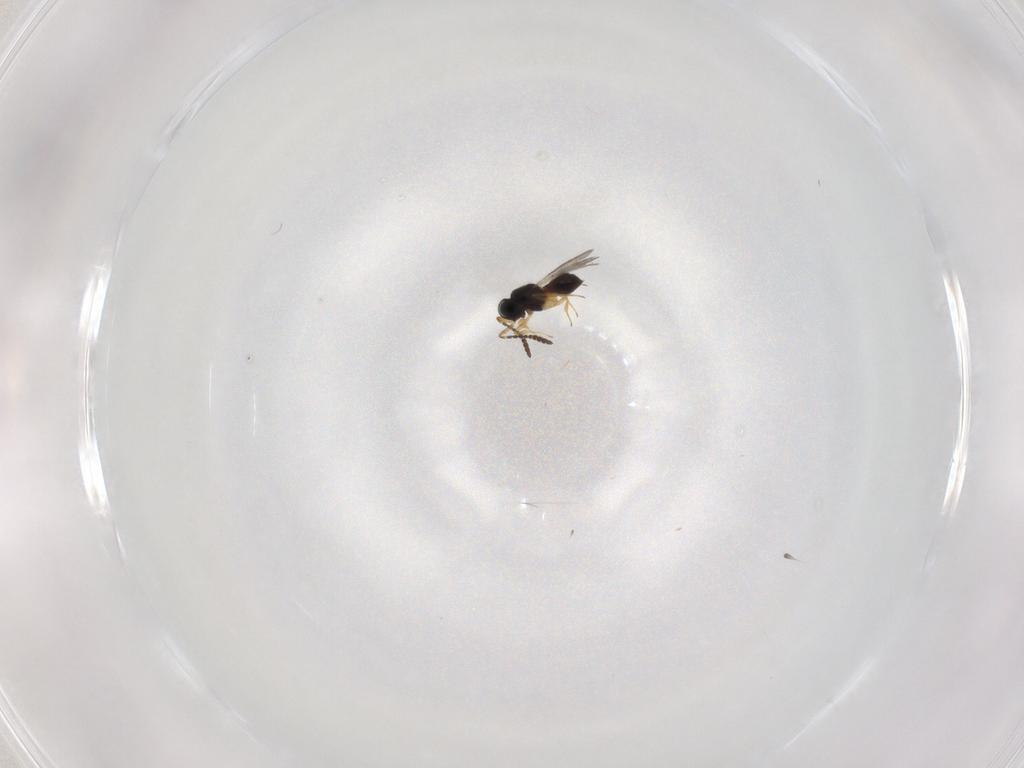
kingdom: Animalia
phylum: Arthropoda
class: Insecta
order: Hymenoptera
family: Scelionidae
